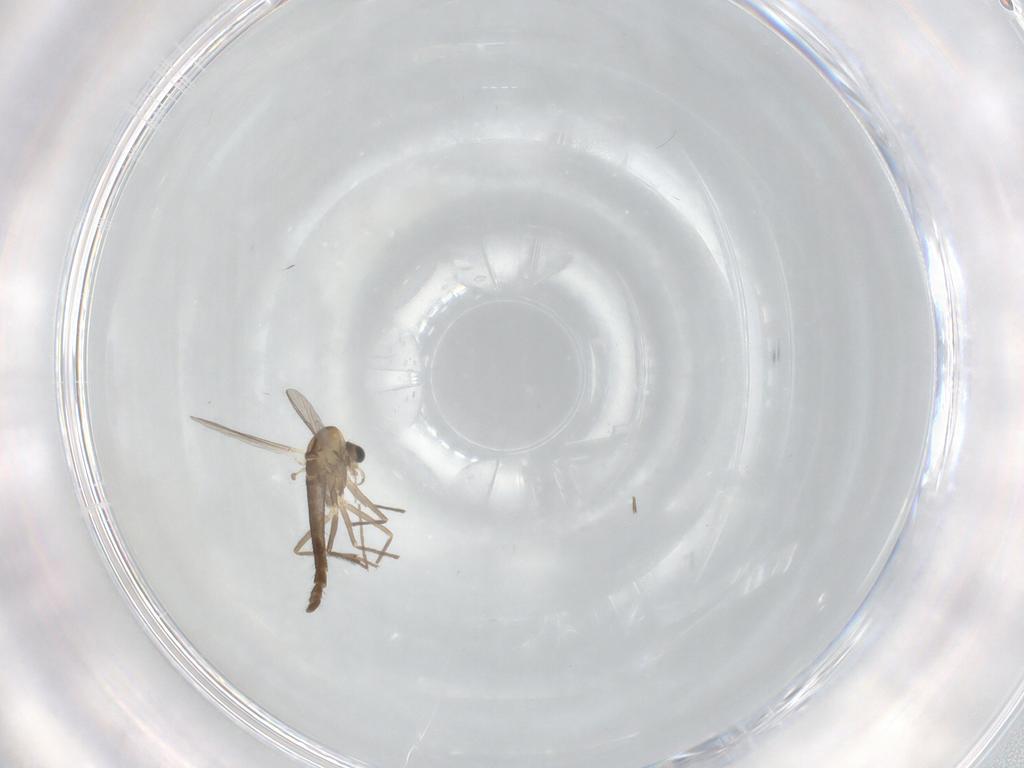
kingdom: Animalia
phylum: Arthropoda
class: Insecta
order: Diptera
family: Chironomidae
